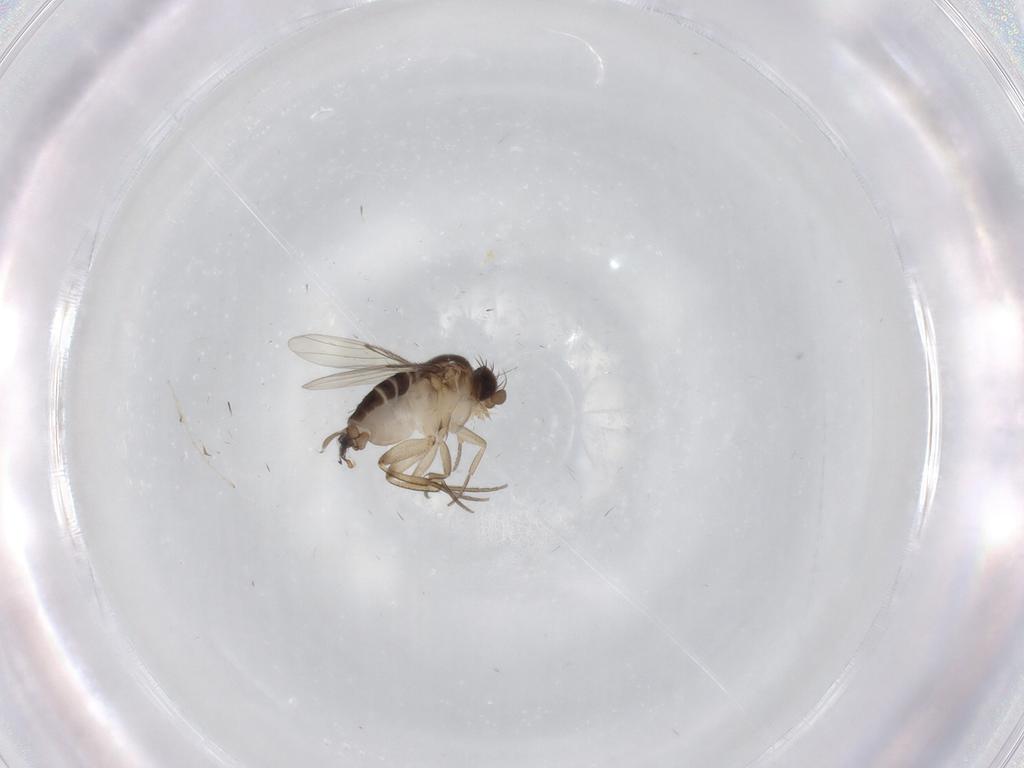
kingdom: Animalia
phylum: Arthropoda
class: Insecta
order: Diptera
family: Cecidomyiidae
